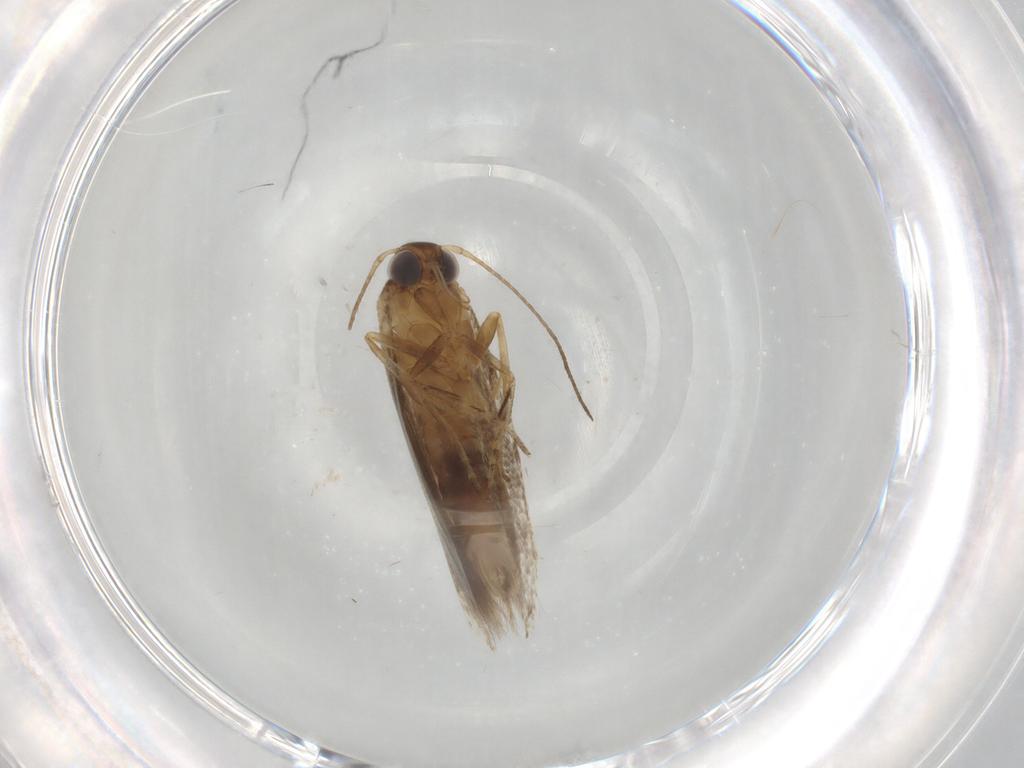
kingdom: Animalia
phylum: Arthropoda
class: Insecta
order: Lepidoptera
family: Cosmopterigidae
